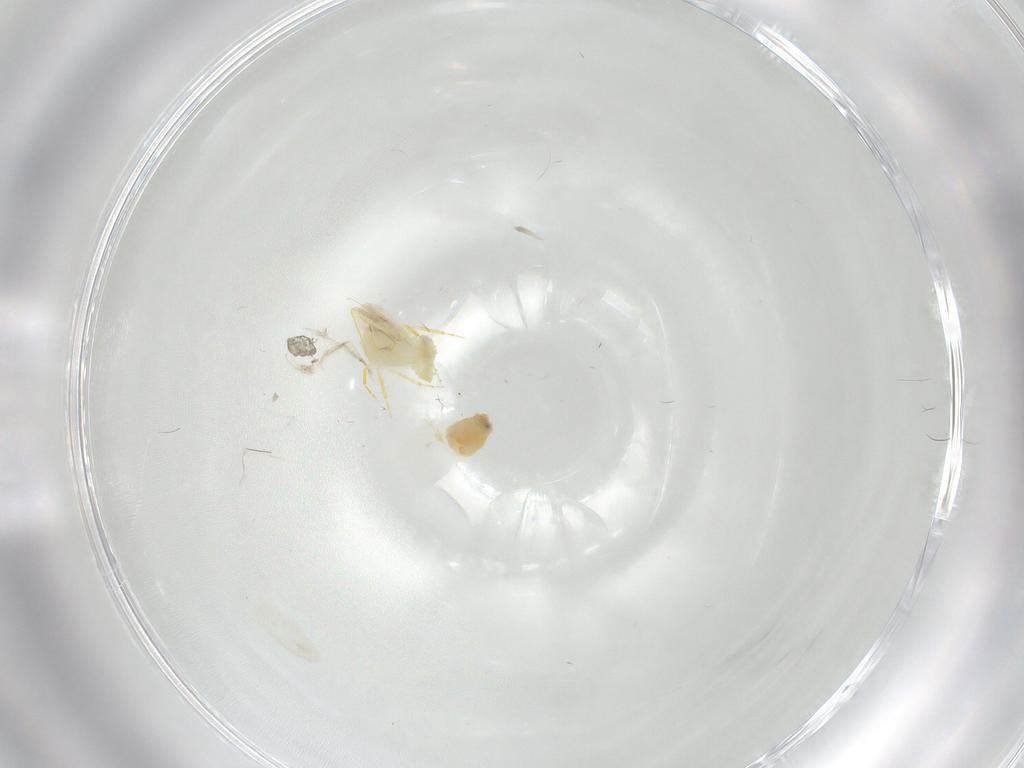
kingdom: Animalia
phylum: Arthropoda
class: Insecta
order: Hemiptera
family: Aleyrodidae
